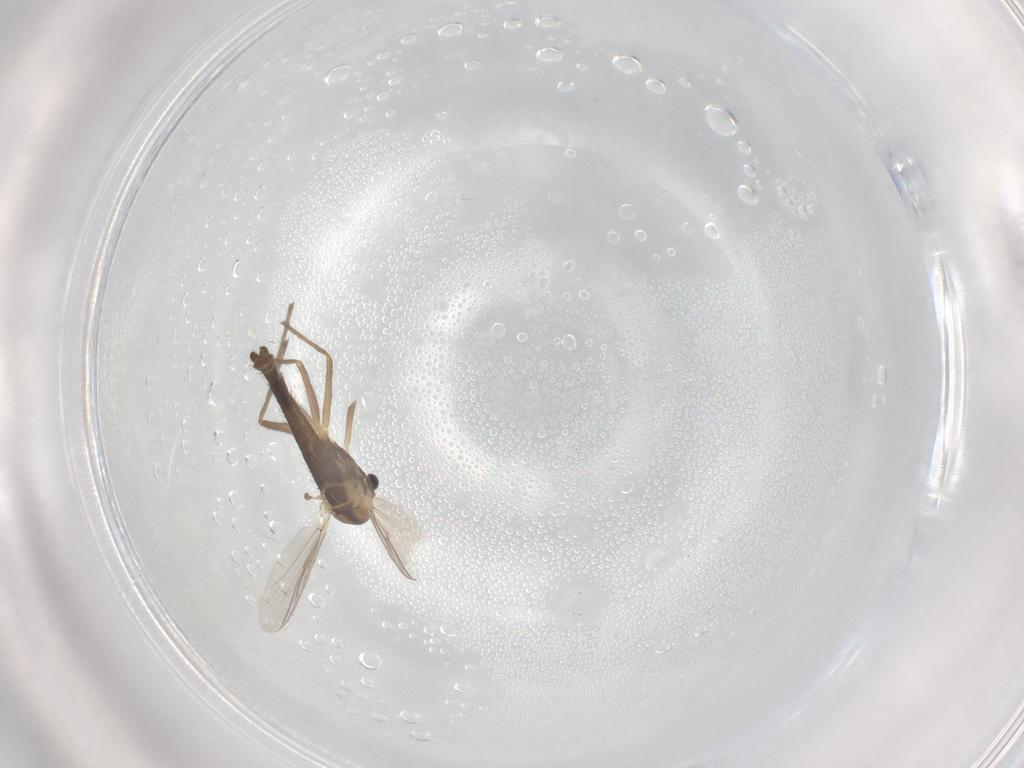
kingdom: Animalia
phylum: Arthropoda
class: Insecta
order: Diptera
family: Chironomidae
